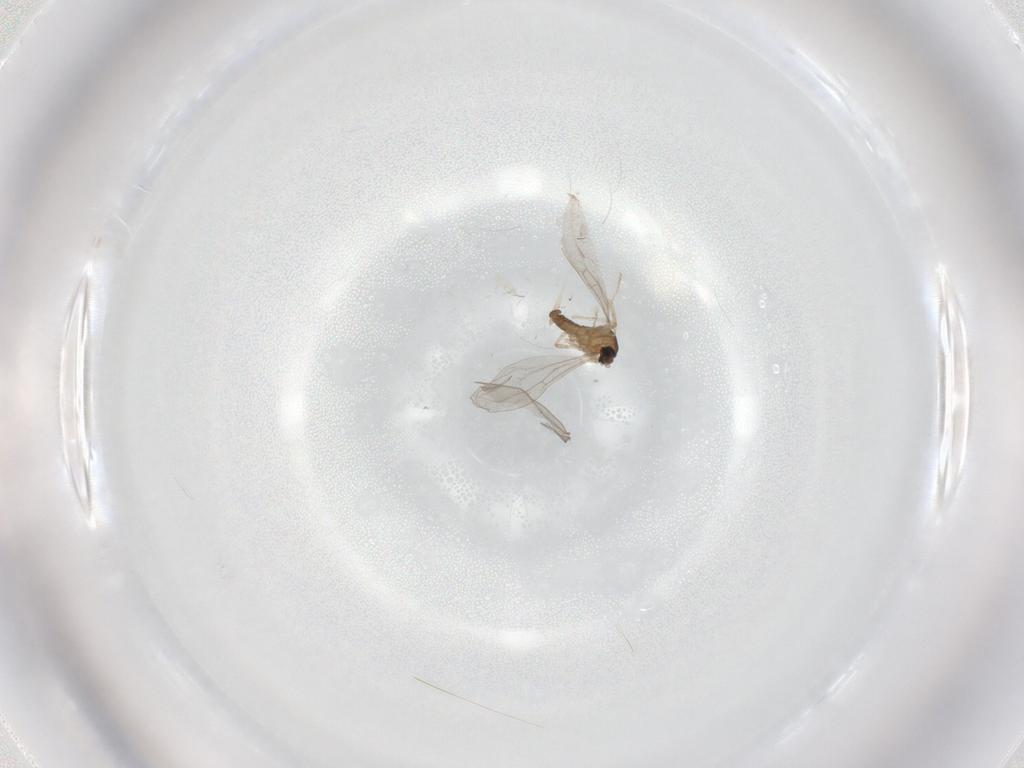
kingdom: Animalia
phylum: Arthropoda
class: Insecta
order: Diptera
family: Cecidomyiidae
